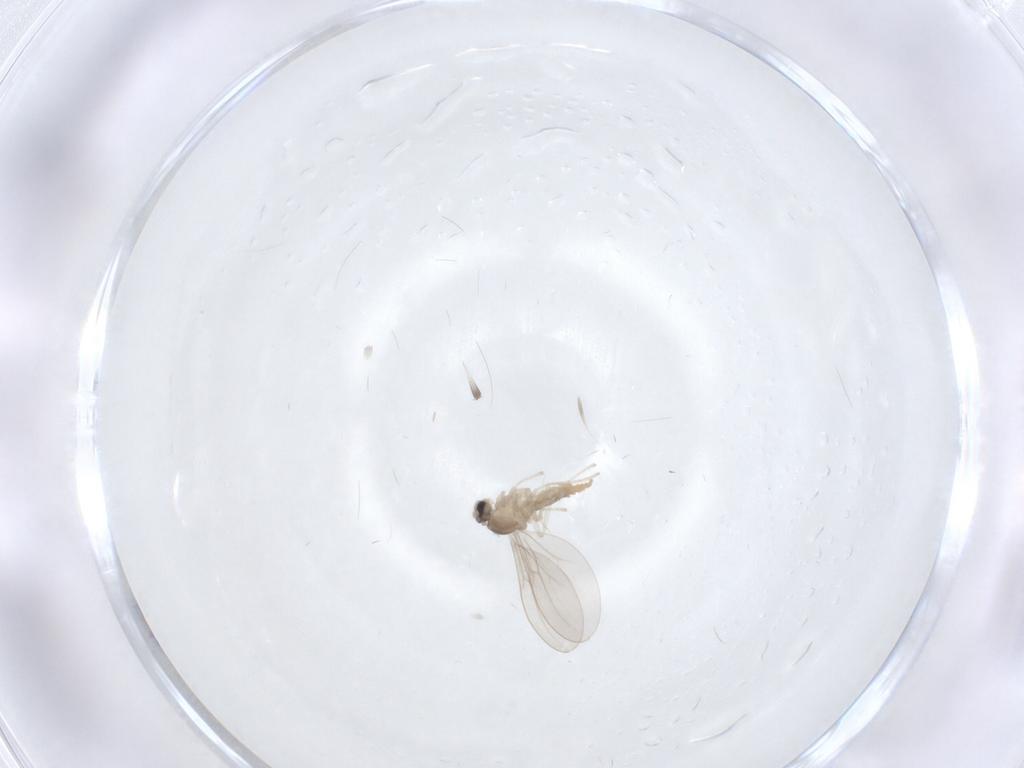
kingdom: Animalia
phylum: Arthropoda
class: Insecta
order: Diptera
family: Cecidomyiidae
